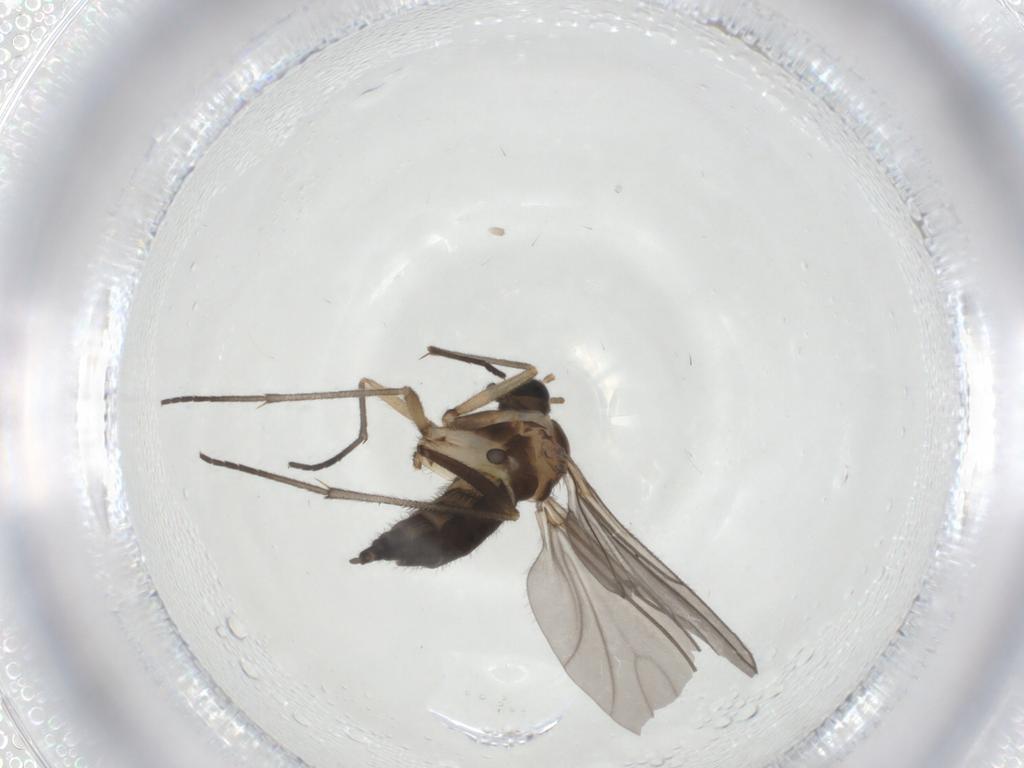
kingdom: Animalia
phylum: Arthropoda
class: Insecta
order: Diptera
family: Sciaridae
